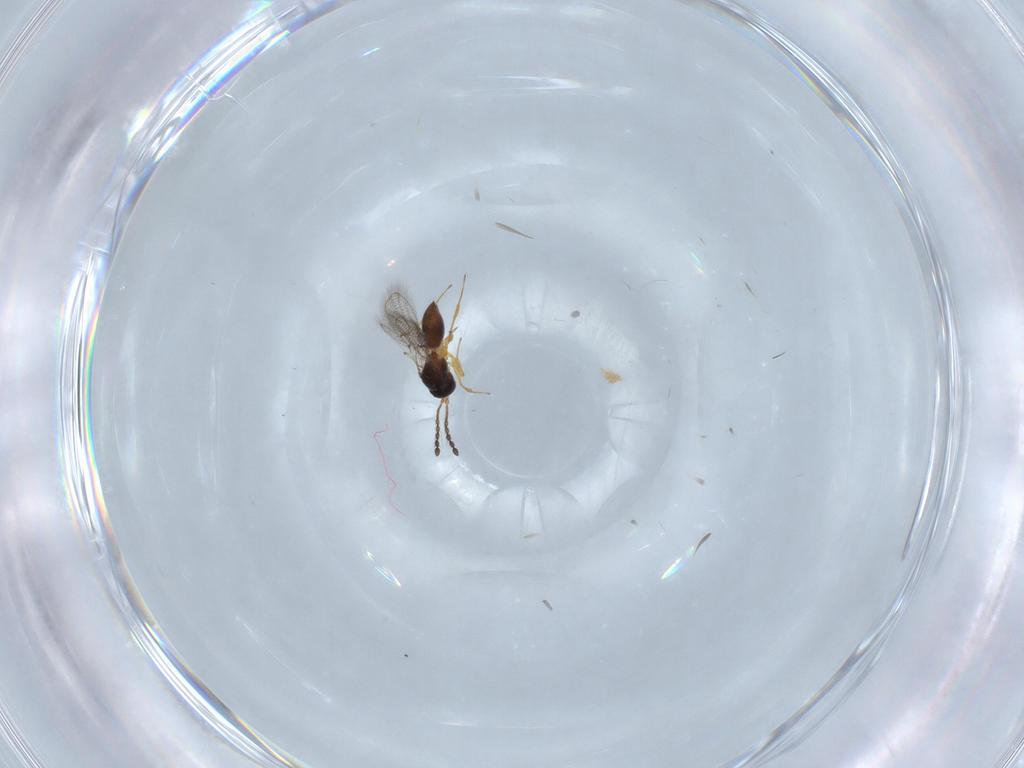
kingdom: Animalia
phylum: Arthropoda
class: Insecta
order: Hymenoptera
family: Figitidae
